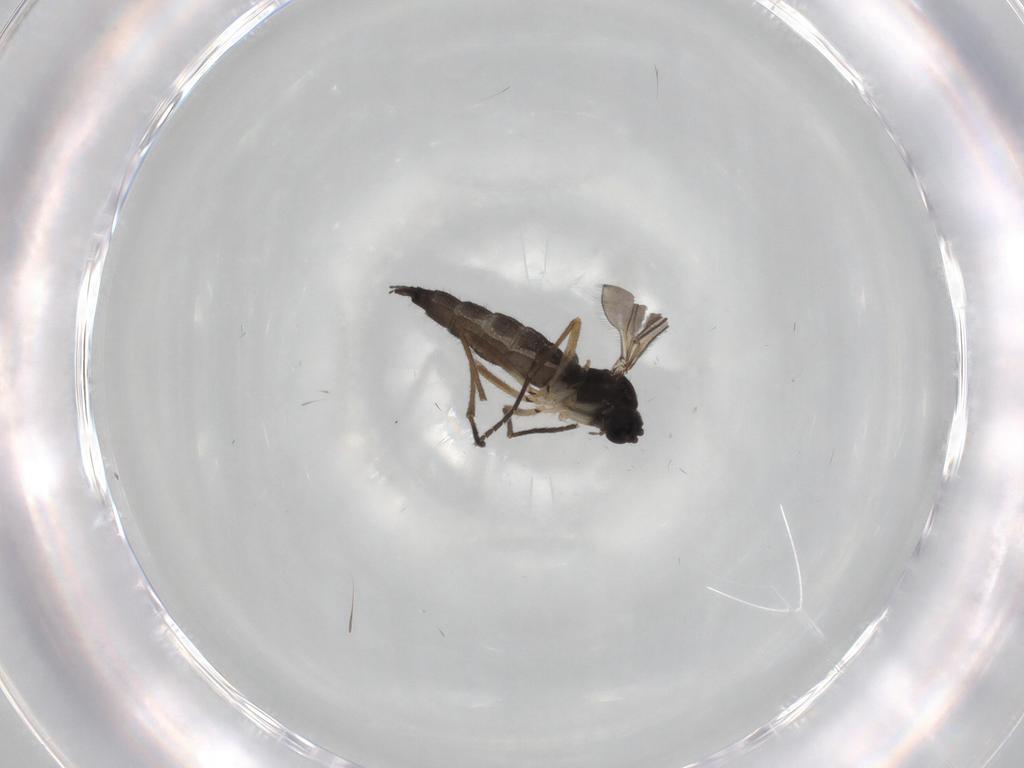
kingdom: Animalia
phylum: Arthropoda
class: Insecta
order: Diptera
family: Sciaridae
